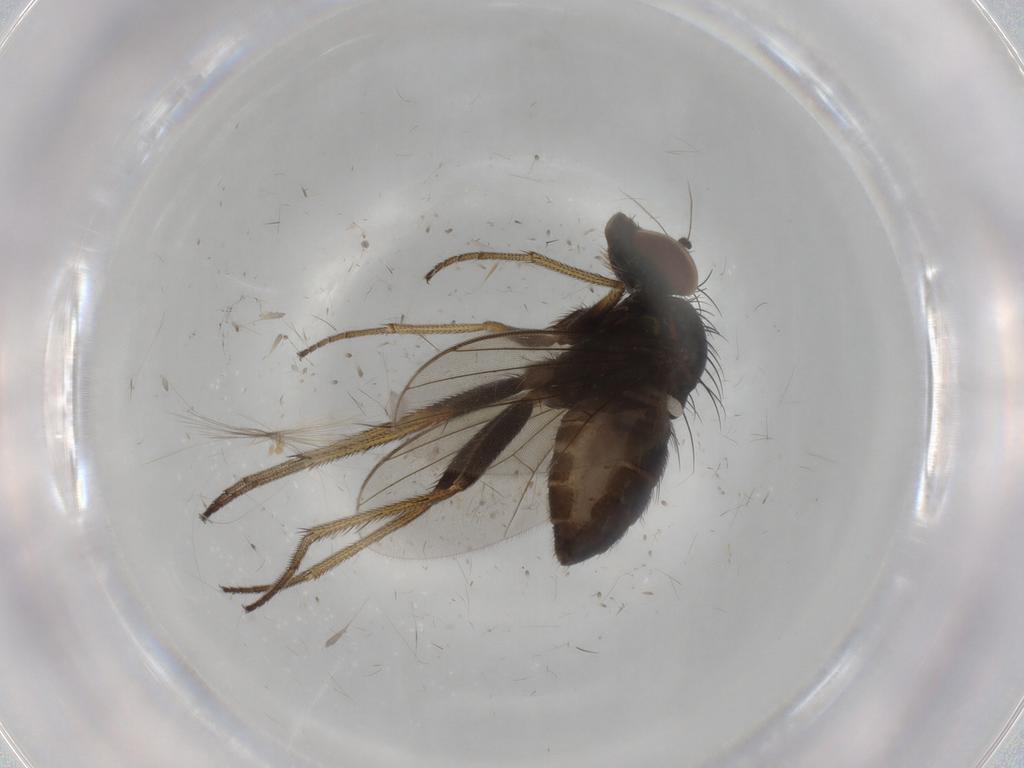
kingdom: Animalia
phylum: Arthropoda
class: Insecta
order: Diptera
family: Dolichopodidae
